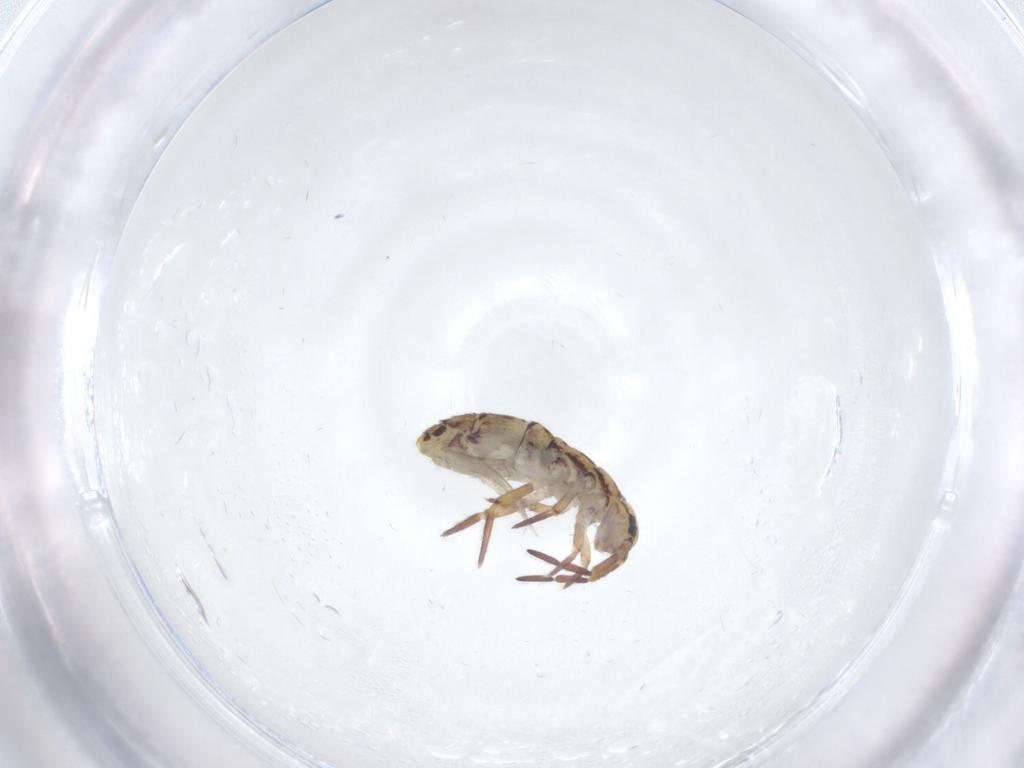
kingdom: Animalia
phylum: Arthropoda
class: Collembola
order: Entomobryomorpha
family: Isotomidae
